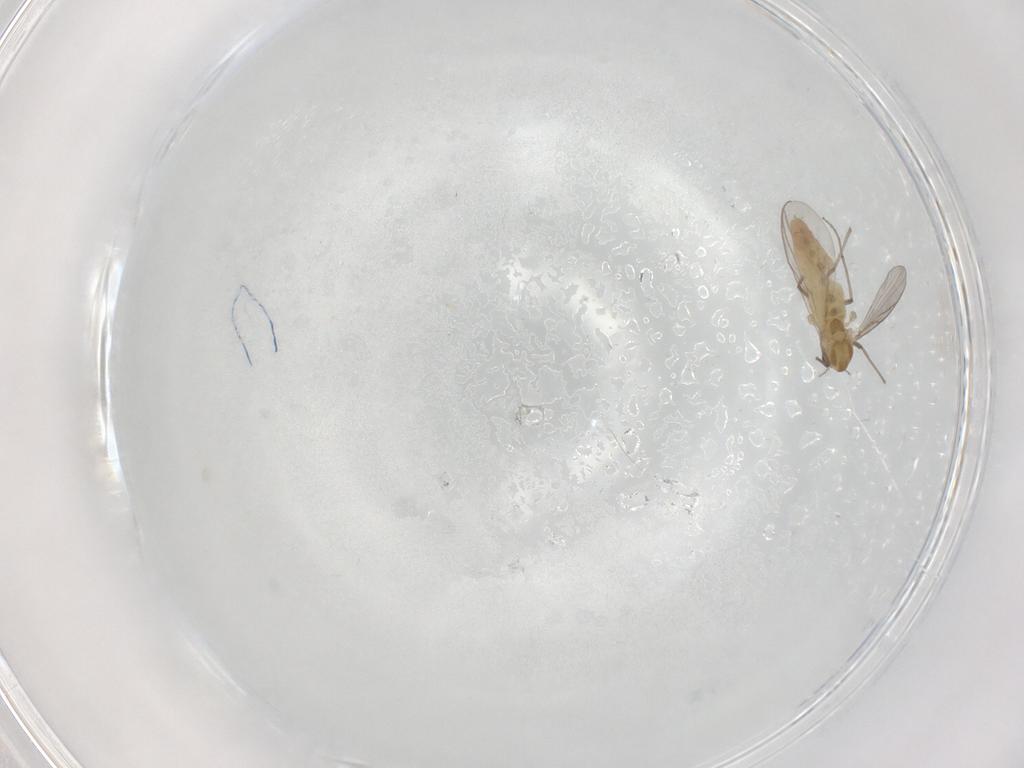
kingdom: Animalia
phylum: Arthropoda
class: Insecta
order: Diptera
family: Chironomidae
